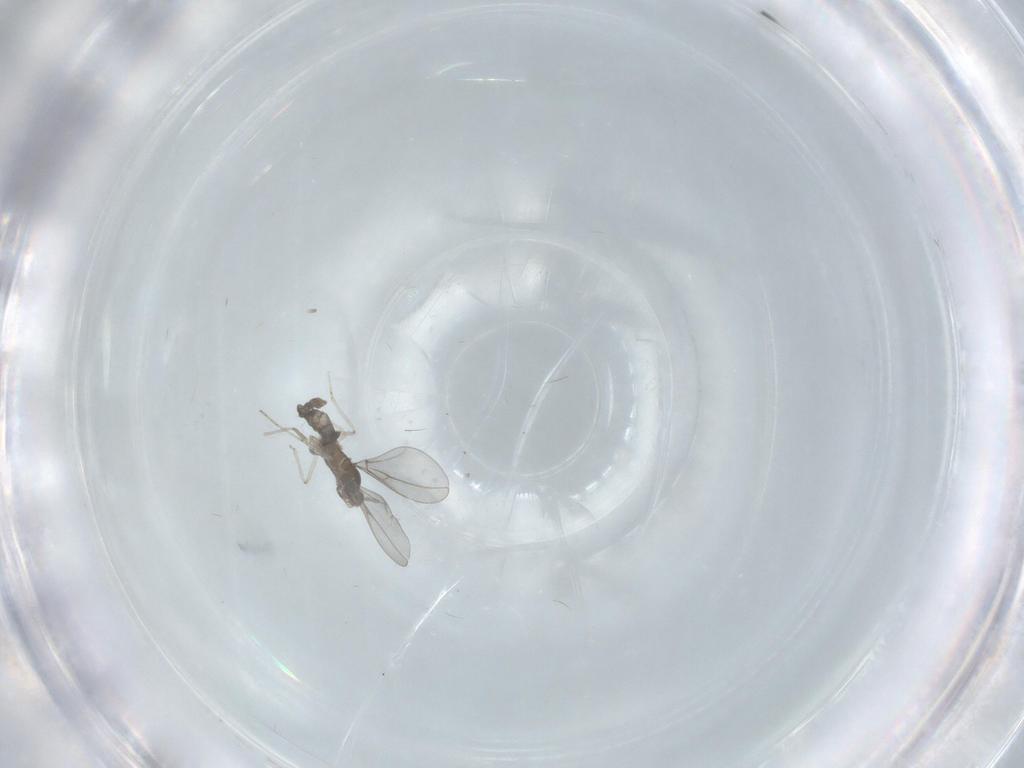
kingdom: Animalia
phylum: Arthropoda
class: Insecta
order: Diptera
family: Cecidomyiidae
